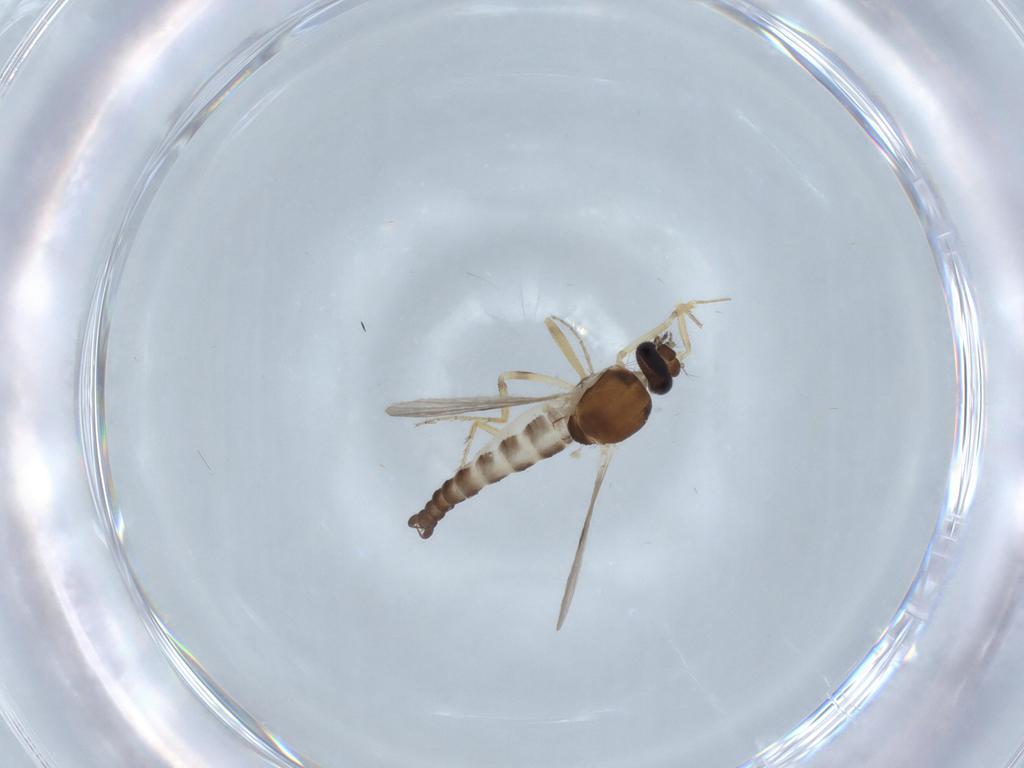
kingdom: Animalia
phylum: Arthropoda
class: Insecta
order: Diptera
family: Ceratopogonidae
